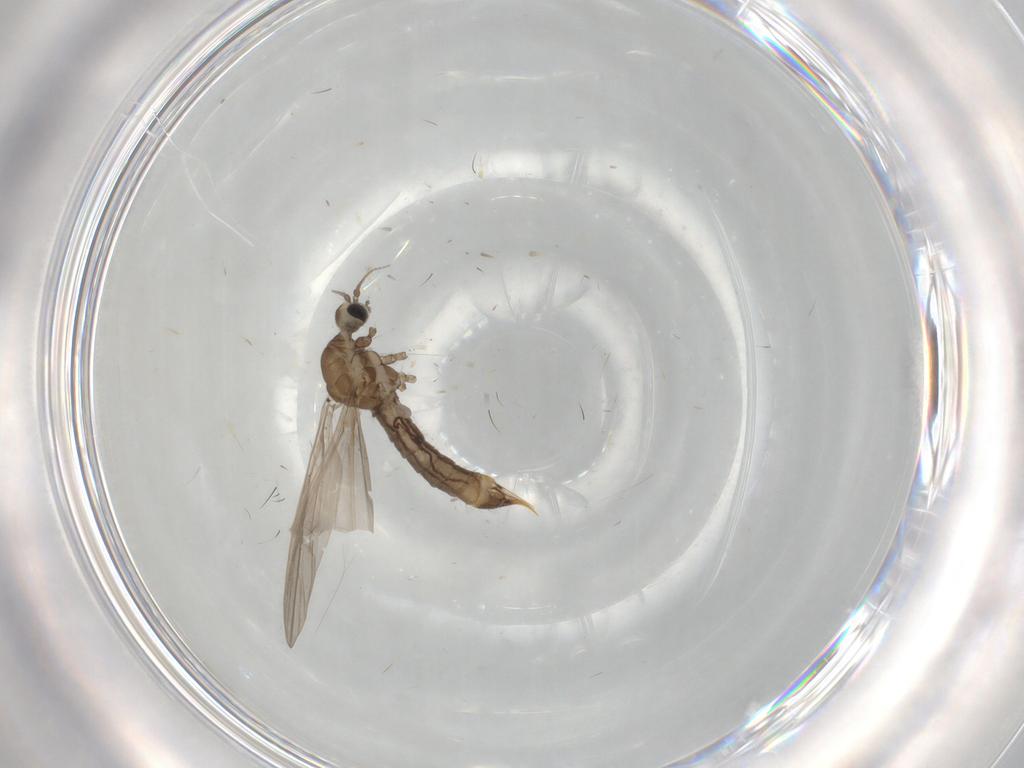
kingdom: Animalia
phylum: Arthropoda
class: Insecta
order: Diptera
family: Limoniidae
